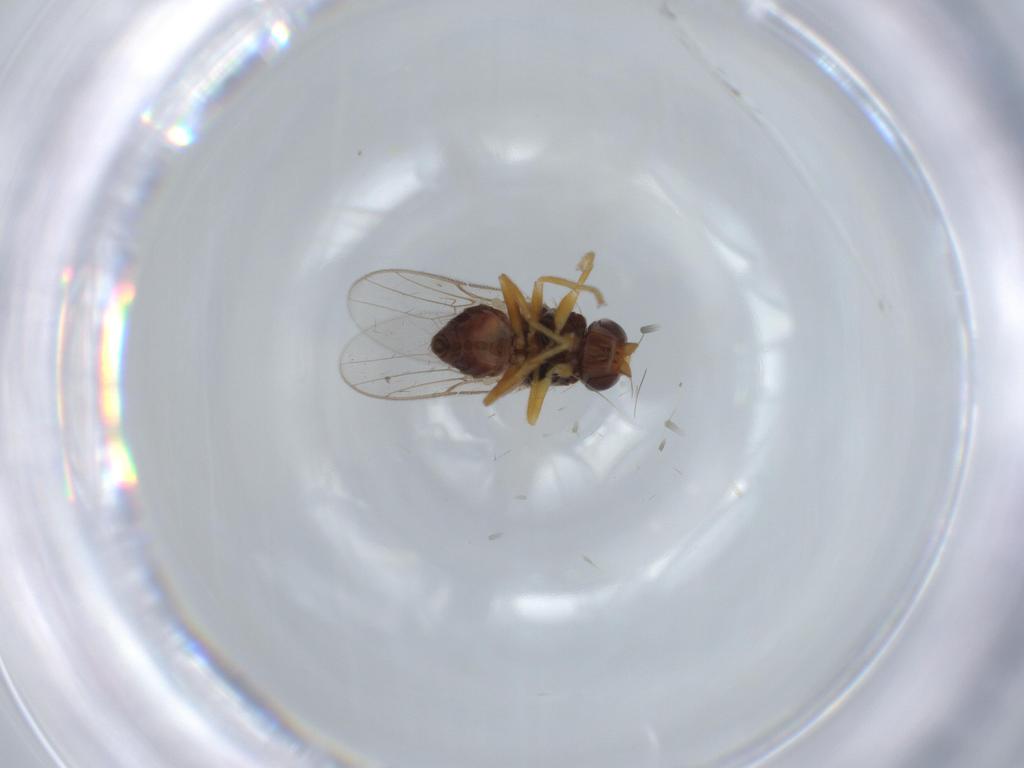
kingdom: Animalia
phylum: Arthropoda
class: Insecta
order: Diptera
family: Chloropidae
